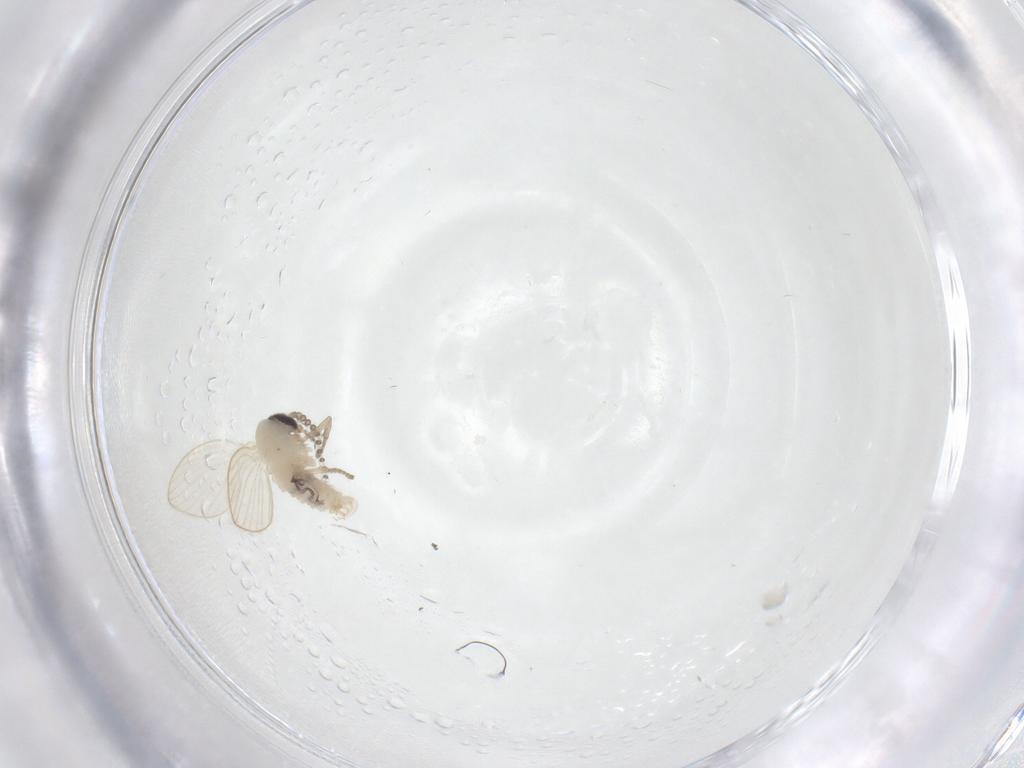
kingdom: Animalia
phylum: Arthropoda
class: Insecta
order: Diptera
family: Psychodidae
